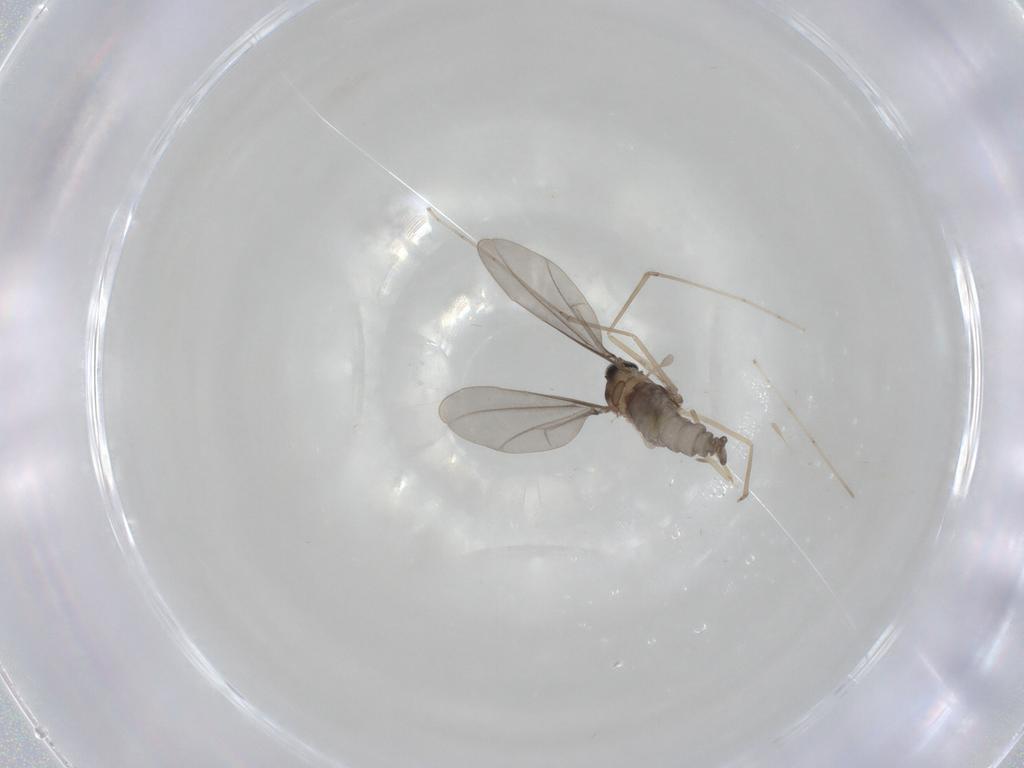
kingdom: Animalia
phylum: Arthropoda
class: Insecta
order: Diptera
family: Cecidomyiidae
